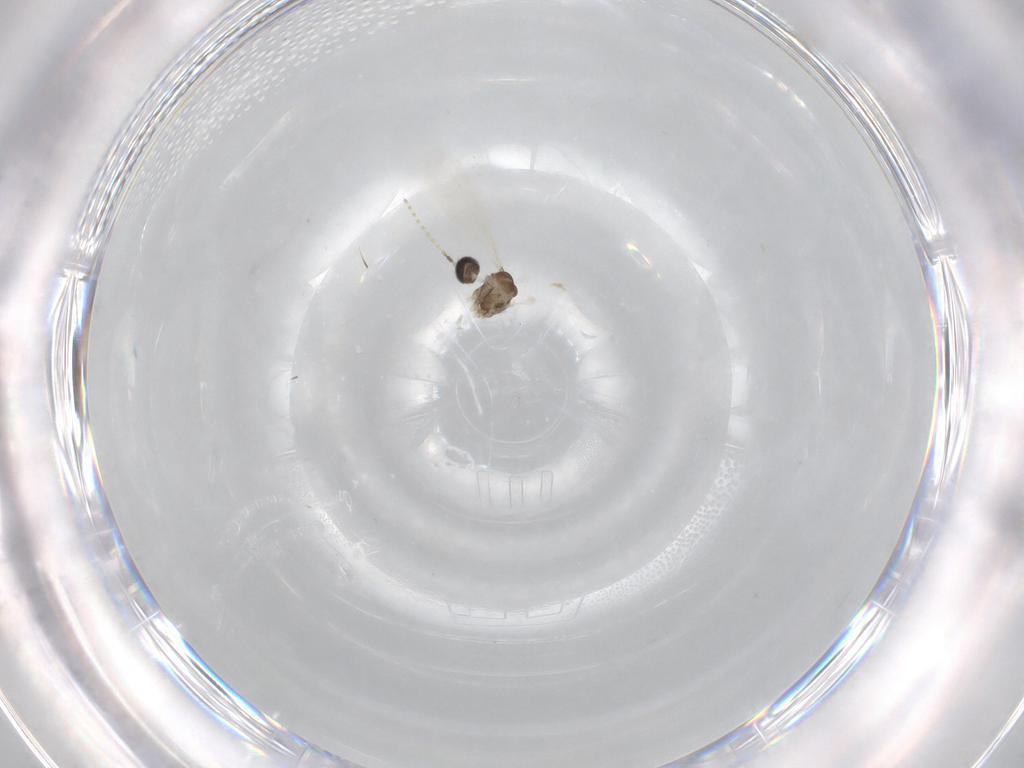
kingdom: Animalia
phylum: Arthropoda
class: Insecta
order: Diptera
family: Cecidomyiidae
